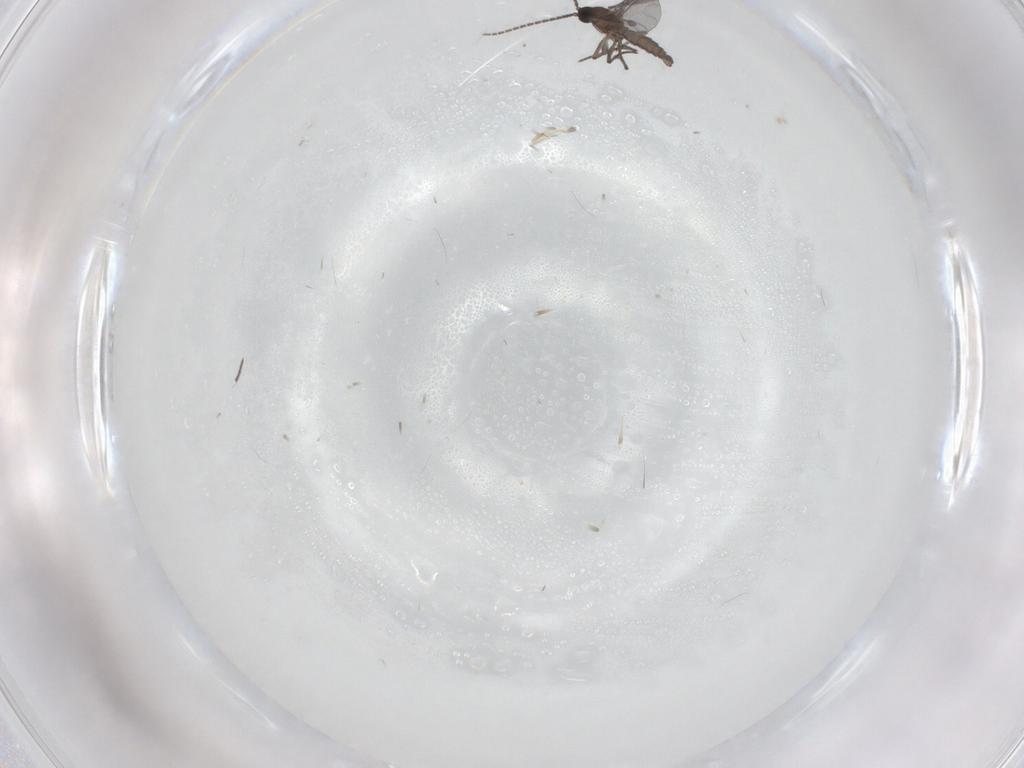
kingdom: Animalia
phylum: Arthropoda
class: Insecta
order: Diptera
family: Sciaridae
